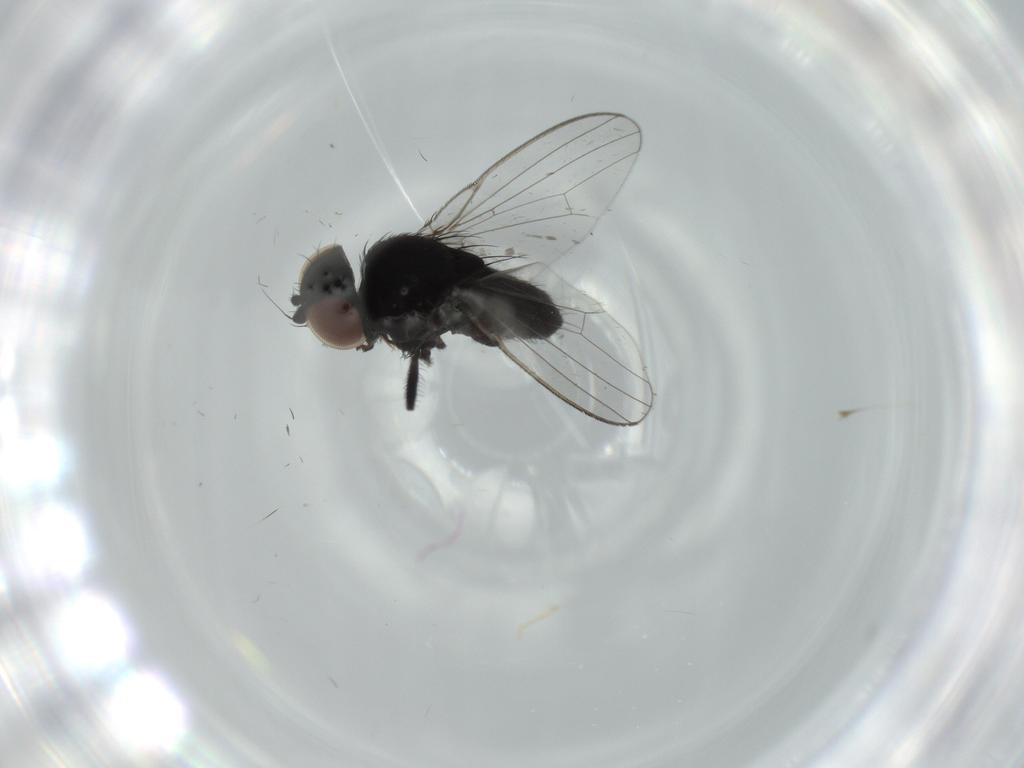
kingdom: Animalia
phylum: Arthropoda
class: Insecta
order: Diptera
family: Milichiidae
